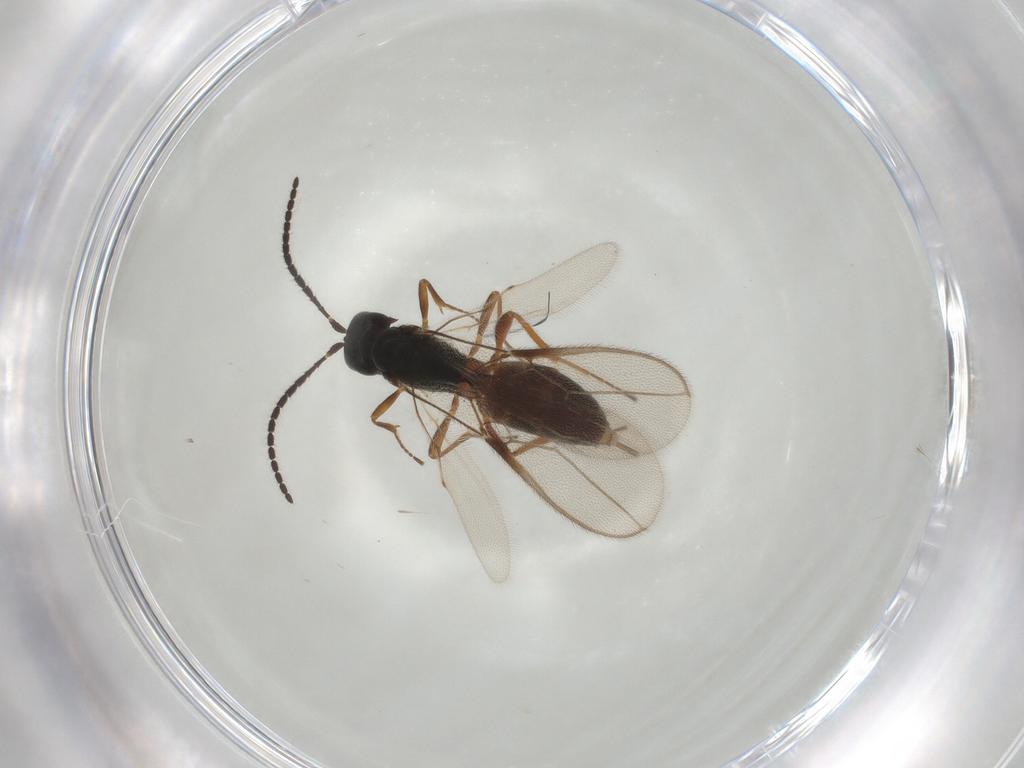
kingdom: Animalia
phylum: Arthropoda
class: Insecta
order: Hymenoptera
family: Braconidae
